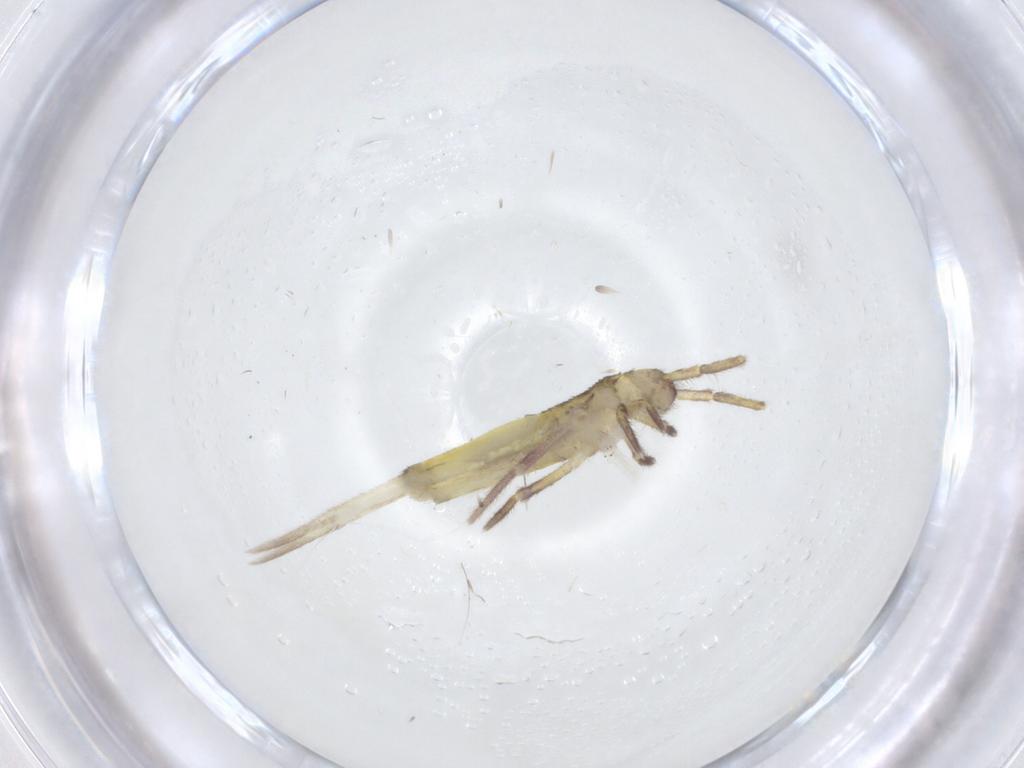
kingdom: Animalia
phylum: Arthropoda
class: Collembola
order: Entomobryomorpha
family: Entomobryidae
